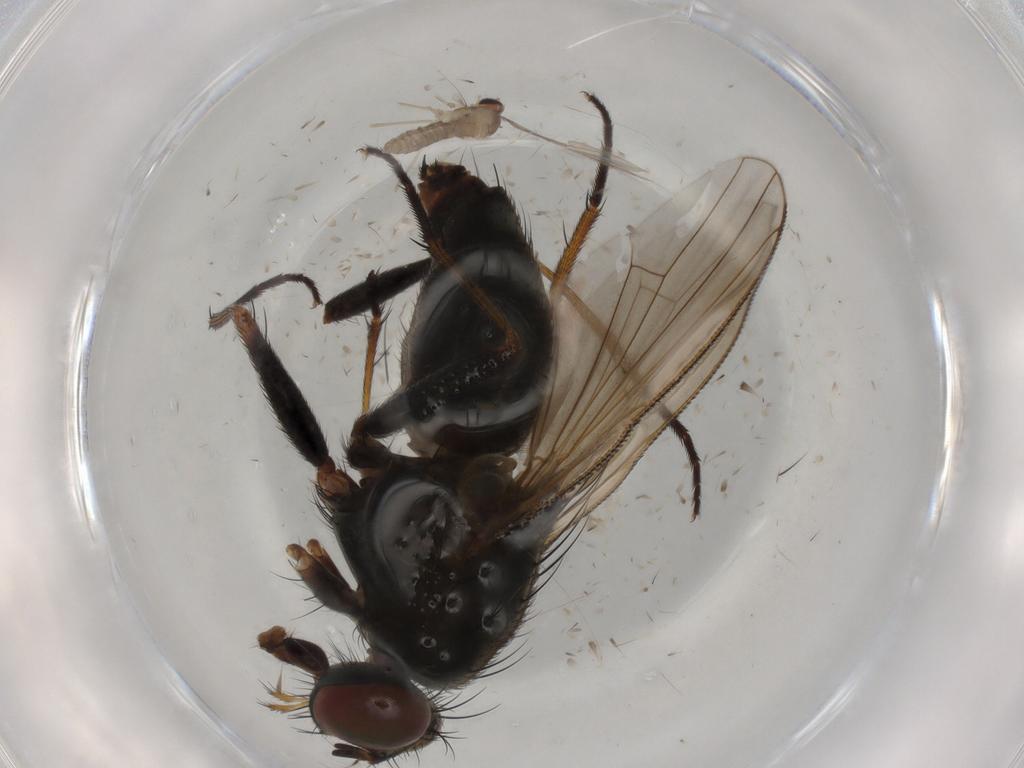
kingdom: Animalia
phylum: Arthropoda
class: Insecta
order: Diptera
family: Muscidae
